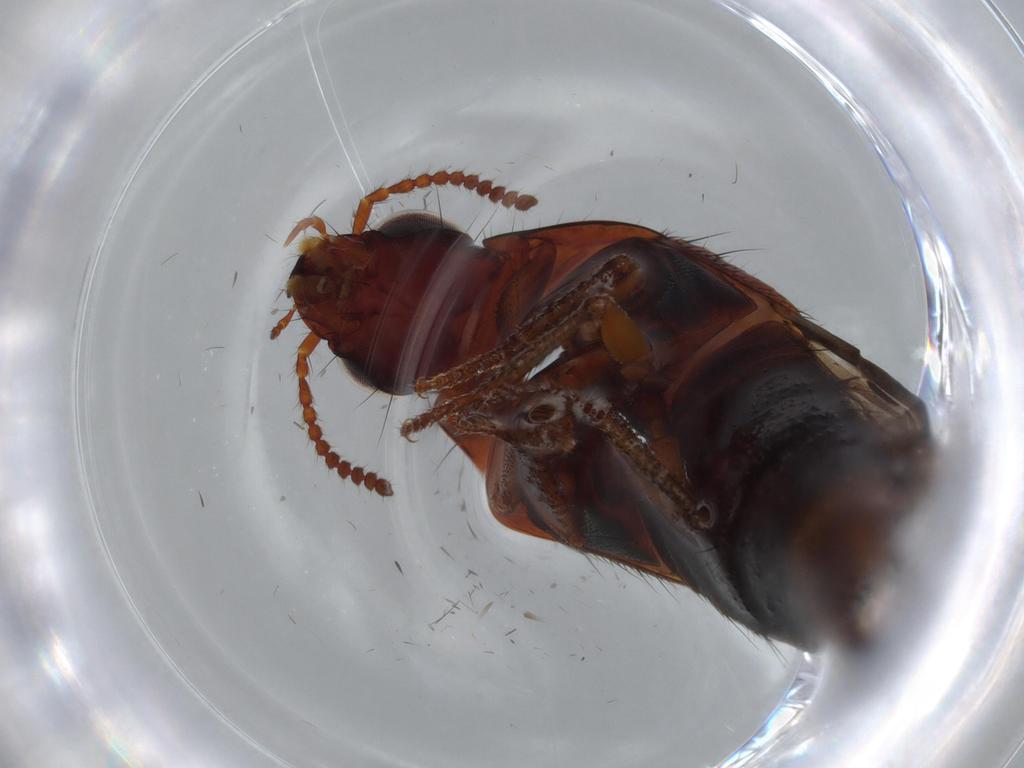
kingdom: Animalia
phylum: Arthropoda
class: Insecta
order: Coleoptera
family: Staphylinidae
